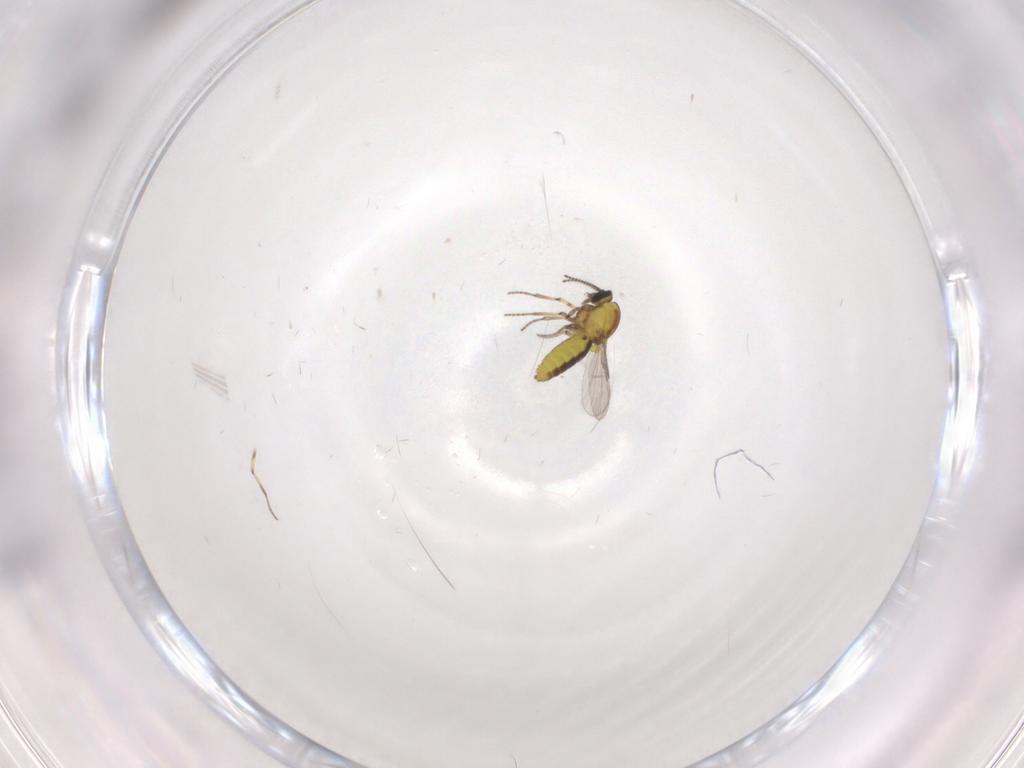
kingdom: Animalia
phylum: Arthropoda
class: Insecta
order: Diptera
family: Ceratopogonidae
